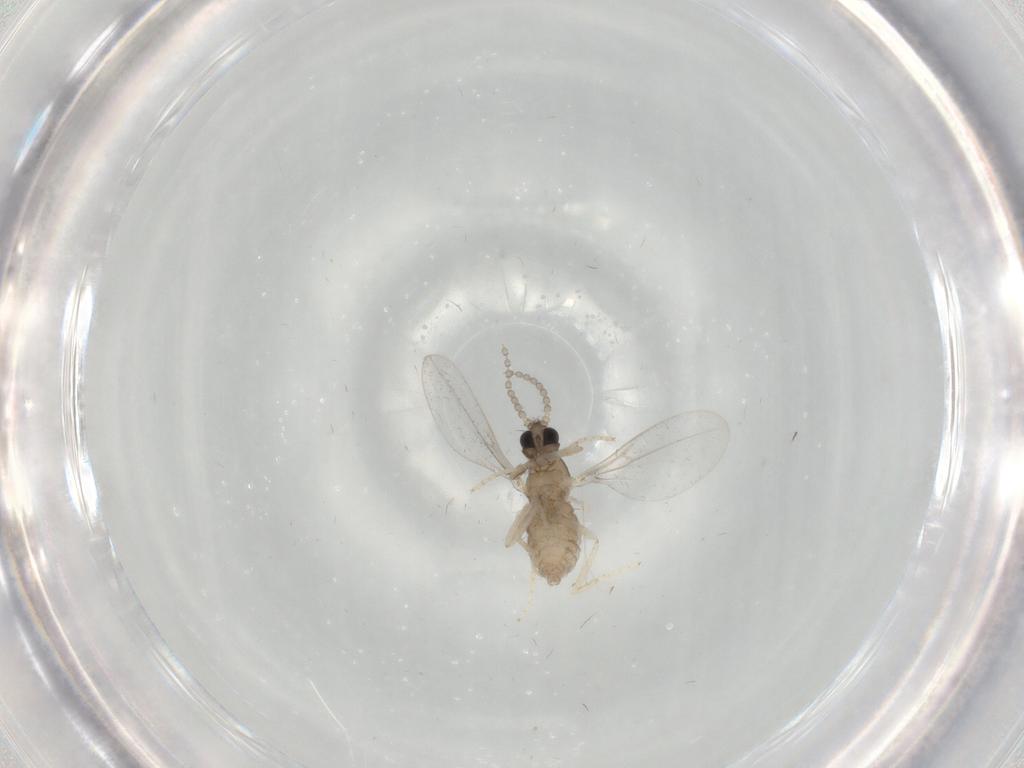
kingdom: Animalia
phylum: Arthropoda
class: Insecta
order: Diptera
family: Cecidomyiidae
